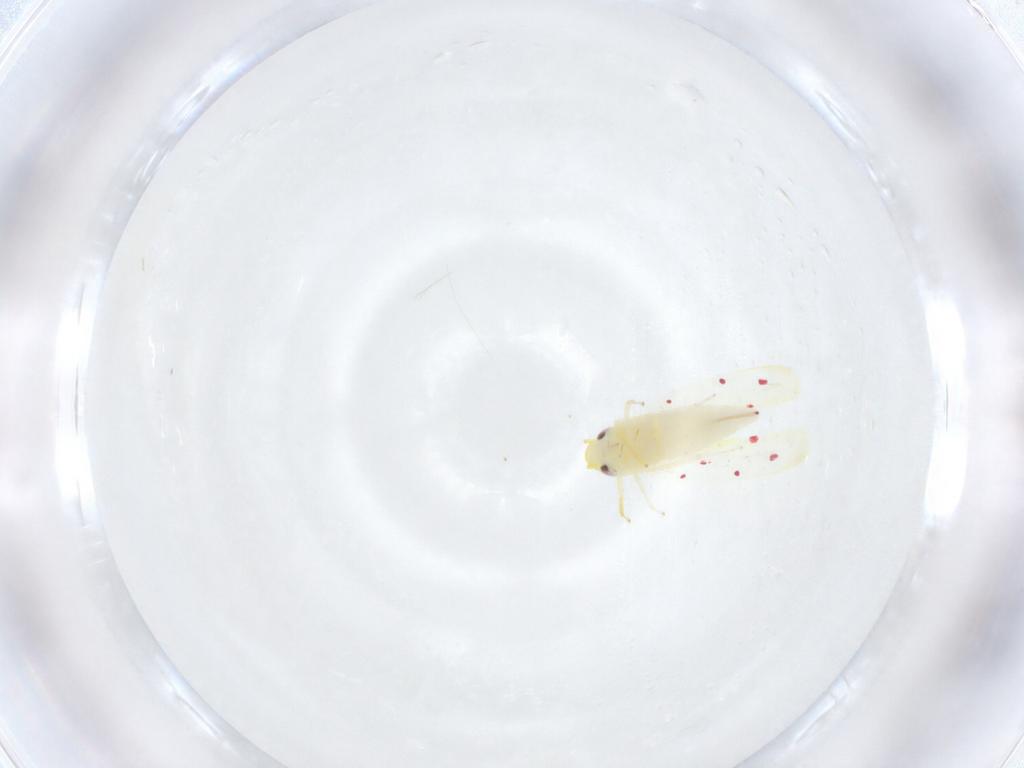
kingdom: Animalia
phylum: Arthropoda
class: Insecta
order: Hemiptera
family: Cicadellidae
